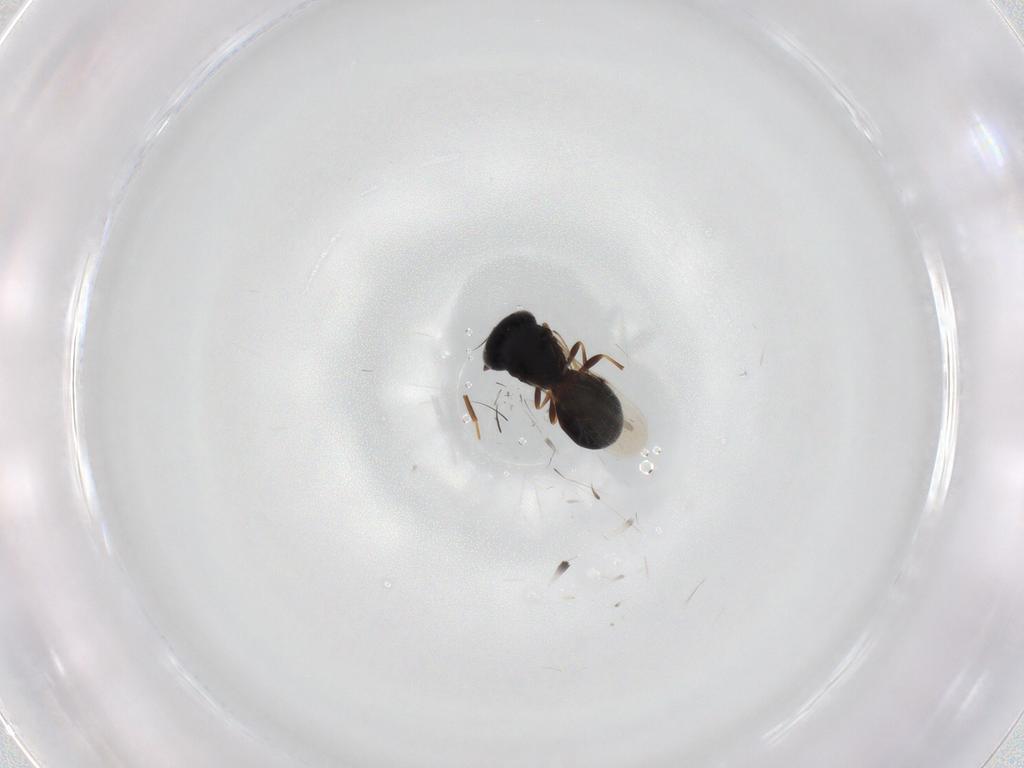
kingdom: Animalia
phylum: Arthropoda
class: Insecta
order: Hymenoptera
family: Scelionidae
